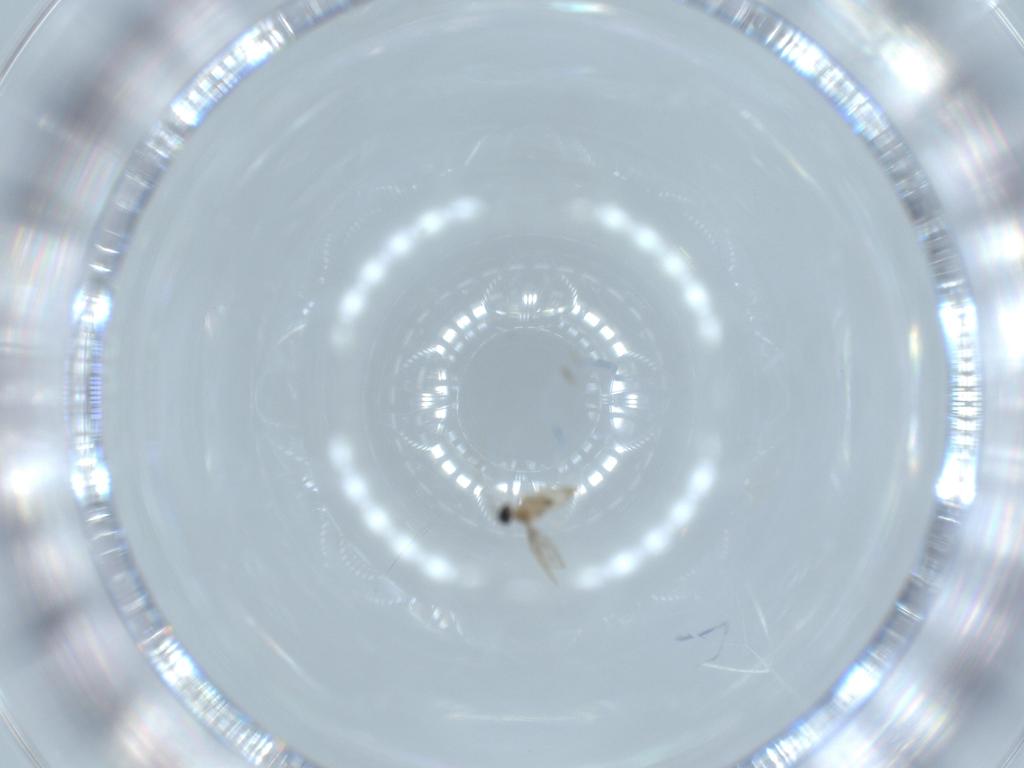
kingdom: Animalia
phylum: Arthropoda
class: Insecta
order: Diptera
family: Cecidomyiidae
